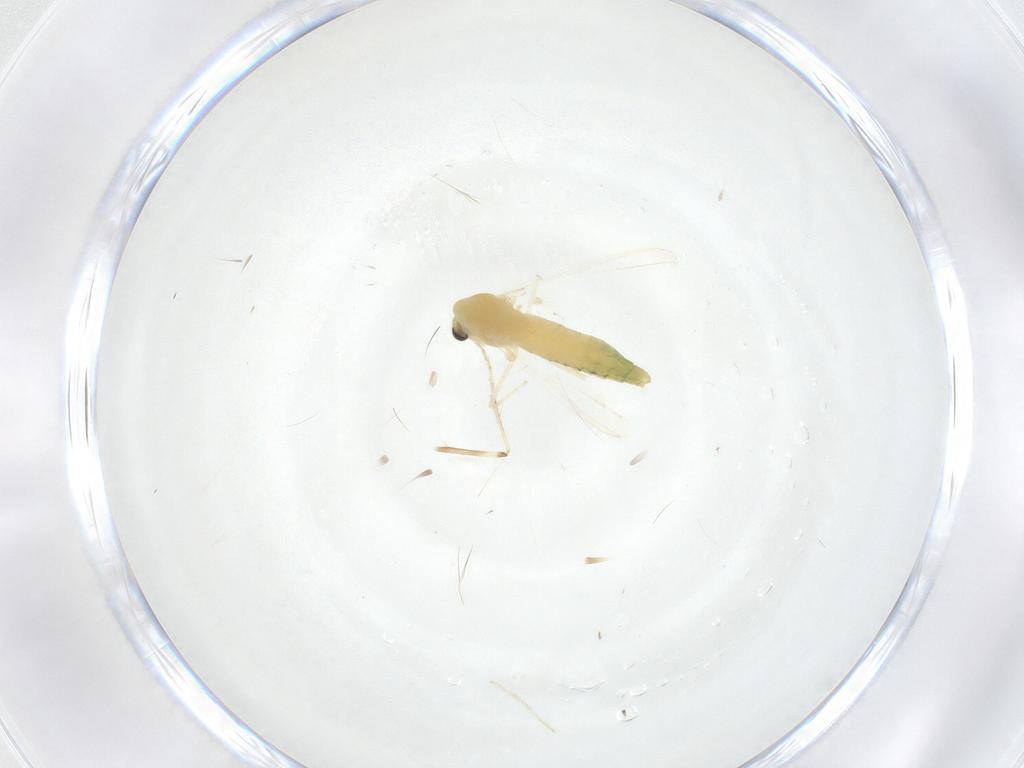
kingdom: Animalia
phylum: Arthropoda
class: Insecta
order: Diptera
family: Chironomidae
